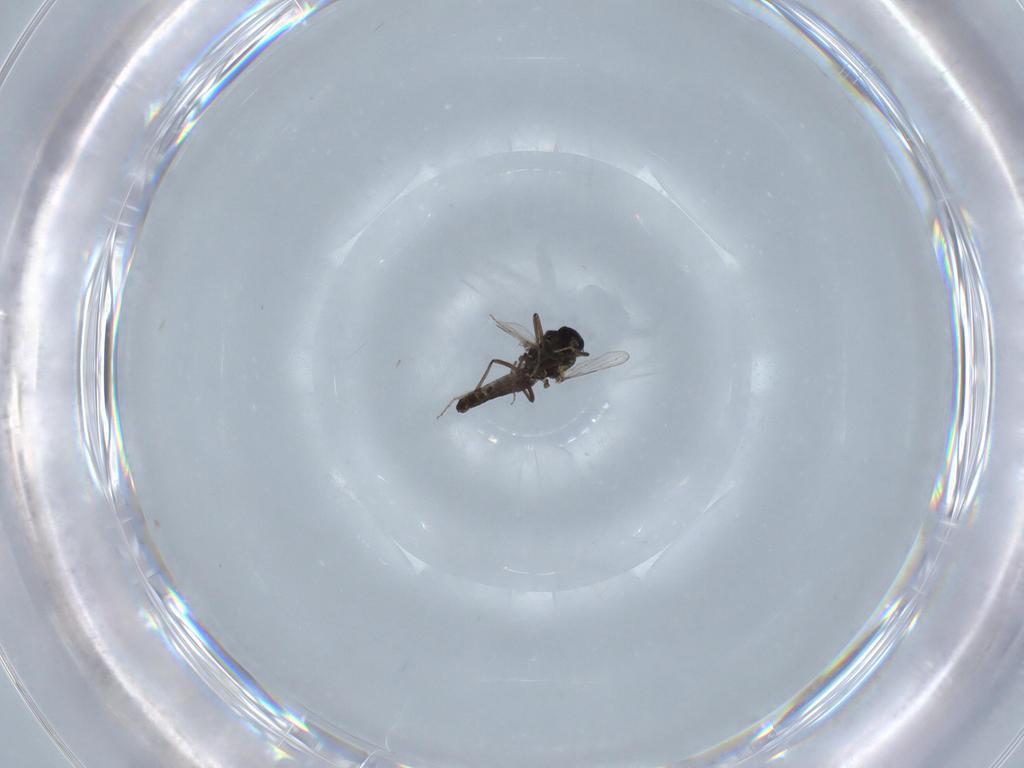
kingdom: Animalia
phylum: Arthropoda
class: Insecta
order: Diptera
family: Ceratopogonidae
